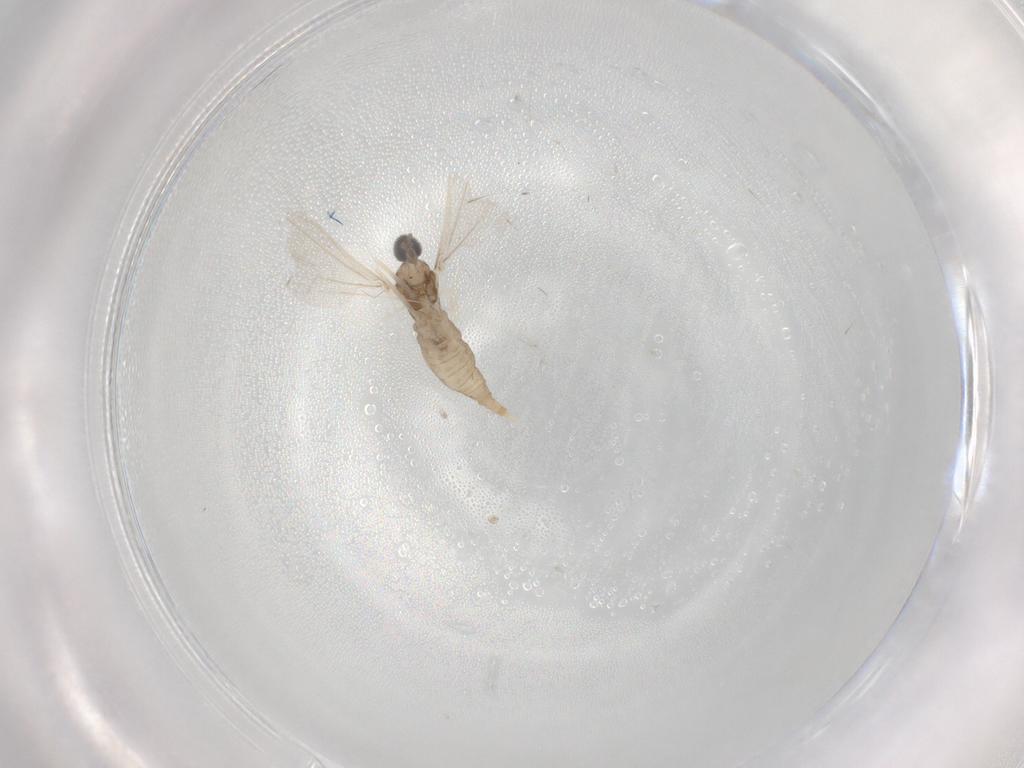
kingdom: Animalia
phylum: Arthropoda
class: Insecta
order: Diptera
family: Cecidomyiidae
